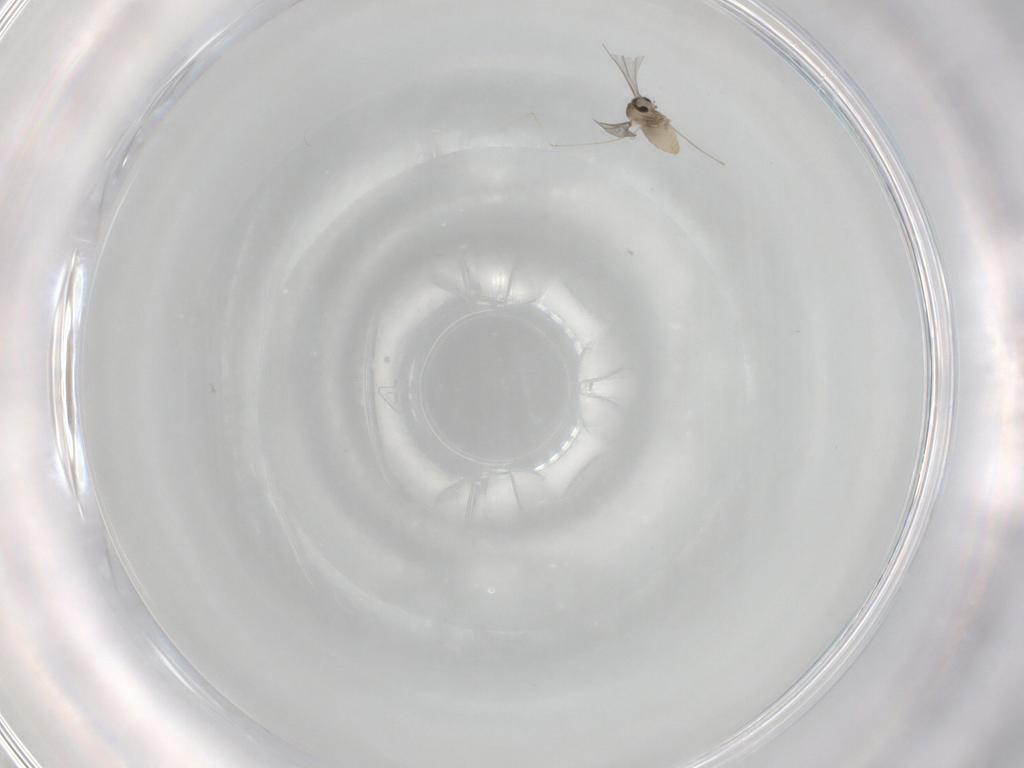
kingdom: Animalia
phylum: Arthropoda
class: Insecta
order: Diptera
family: Cecidomyiidae
